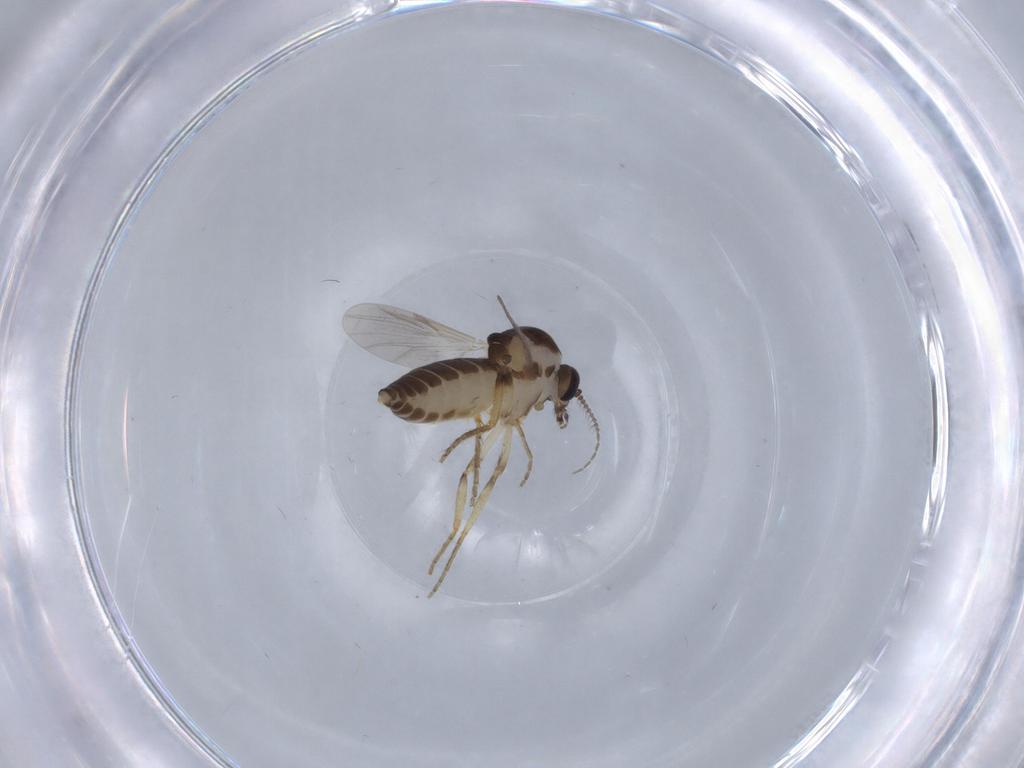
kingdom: Animalia
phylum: Arthropoda
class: Insecta
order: Diptera
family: Ceratopogonidae
